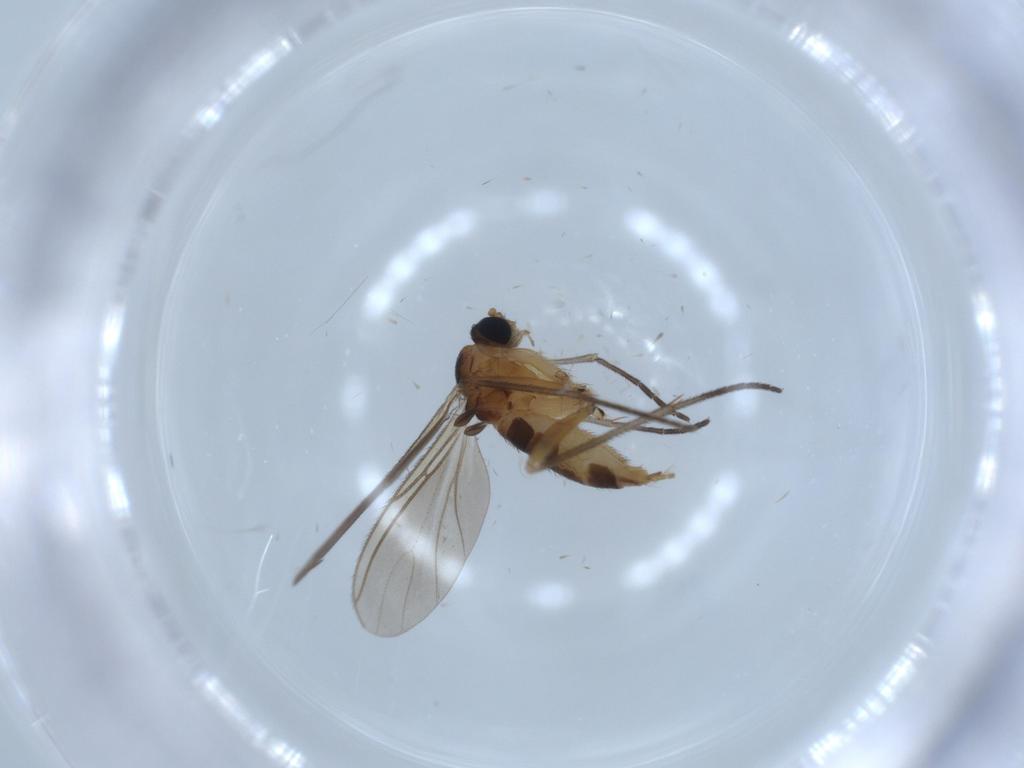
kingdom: Animalia
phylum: Arthropoda
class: Insecta
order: Diptera
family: Sciaridae
